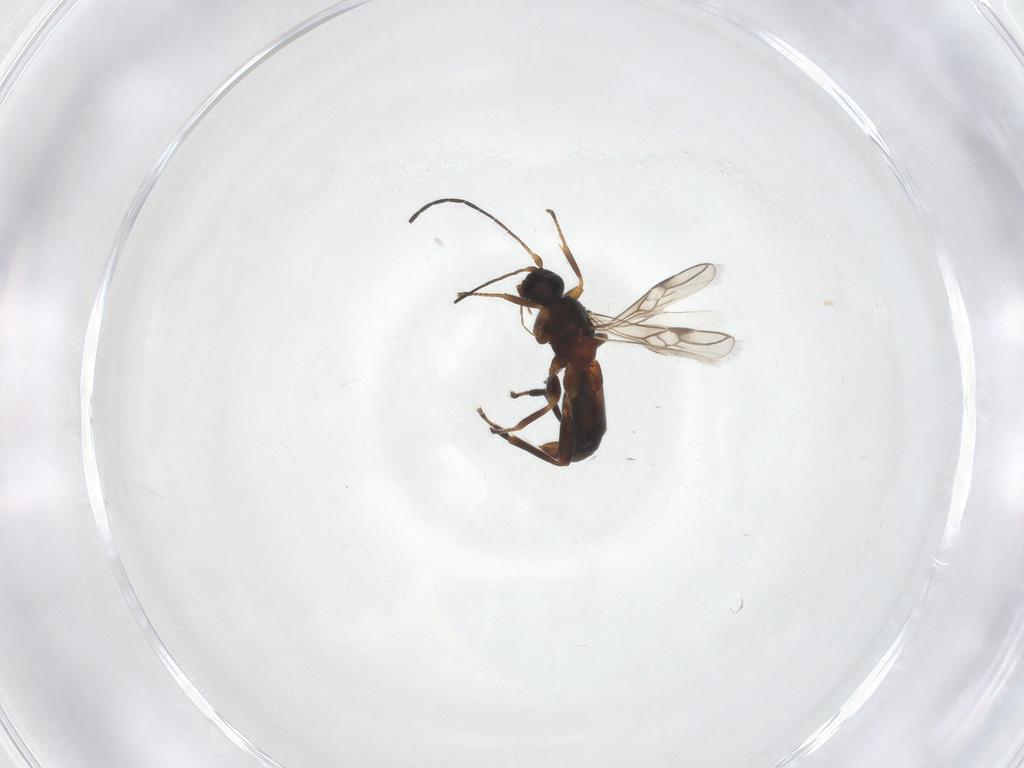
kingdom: Animalia
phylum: Arthropoda
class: Insecta
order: Hymenoptera
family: Braconidae
